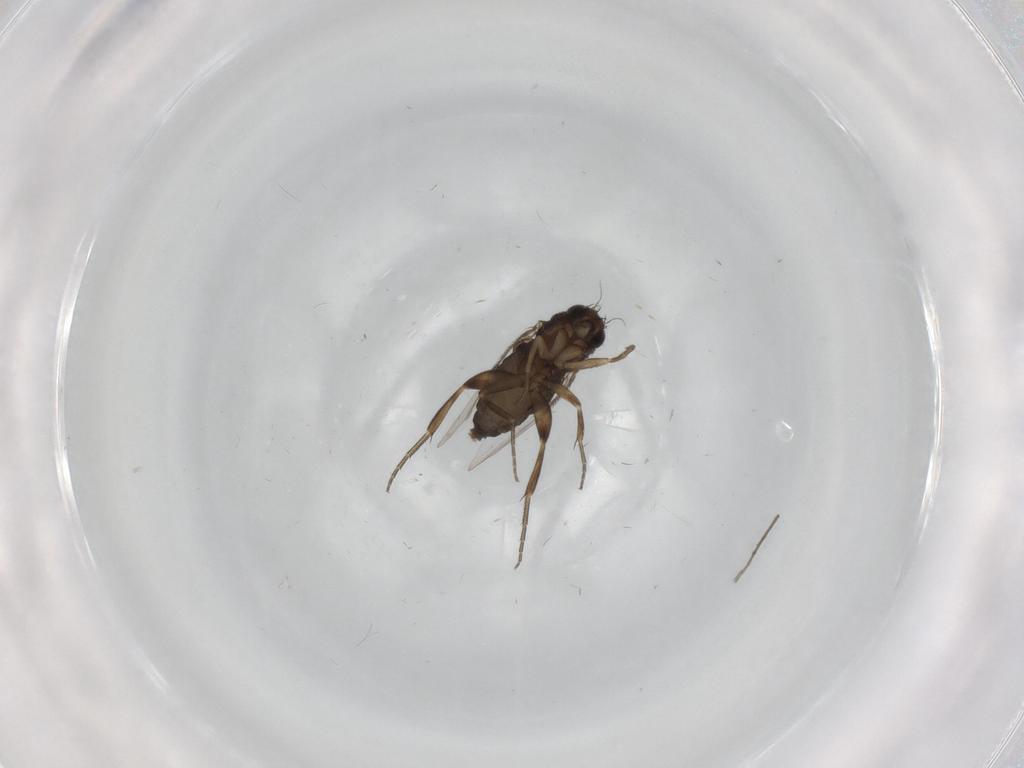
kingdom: Animalia
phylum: Arthropoda
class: Insecta
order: Diptera
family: Phoridae
